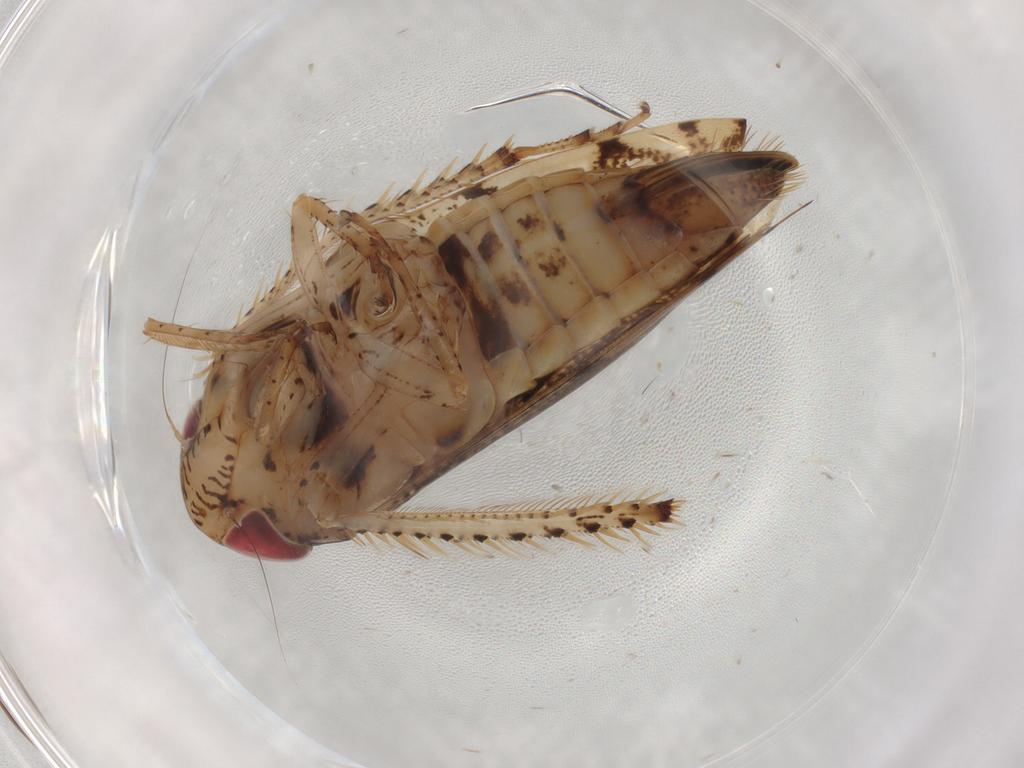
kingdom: Animalia
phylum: Arthropoda
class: Insecta
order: Hemiptera
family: Cicadellidae
